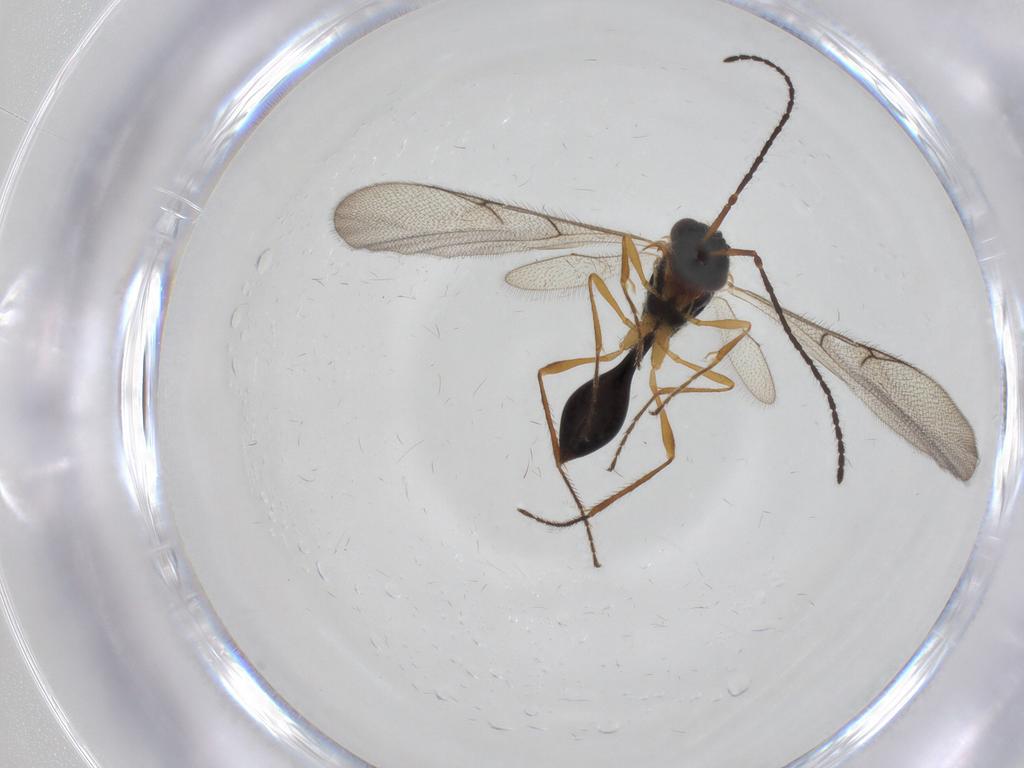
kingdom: Animalia
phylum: Arthropoda
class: Insecta
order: Hymenoptera
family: Diapriidae
